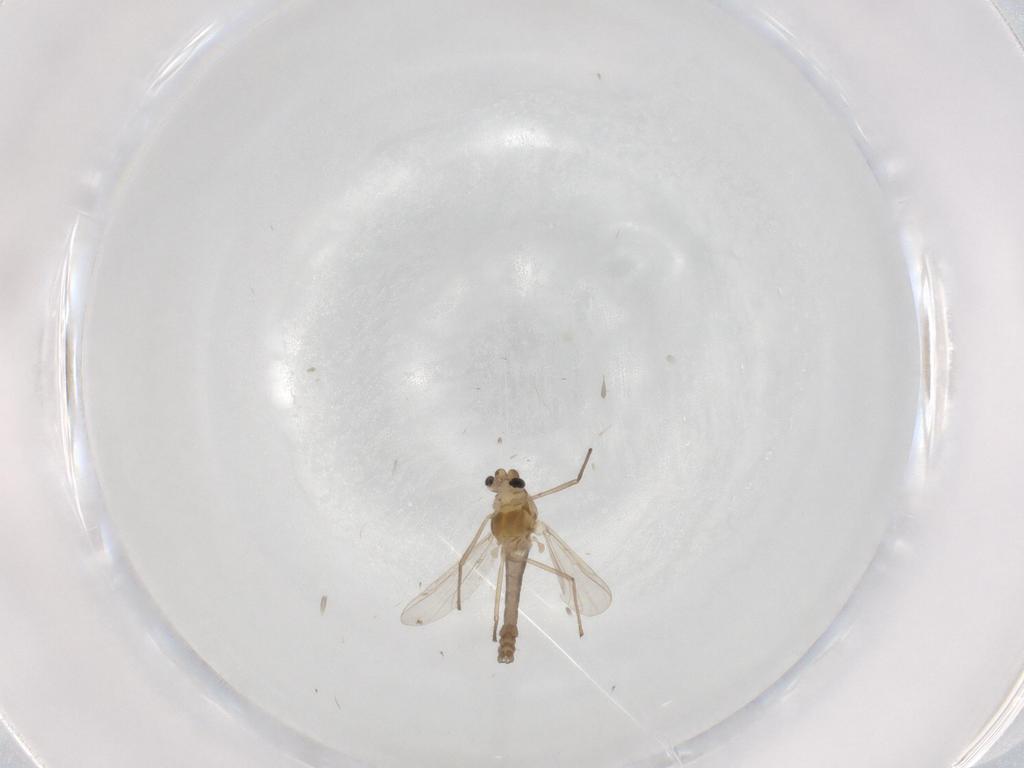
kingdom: Animalia
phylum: Arthropoda
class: Insecta
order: Diptera
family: Chironomidae
